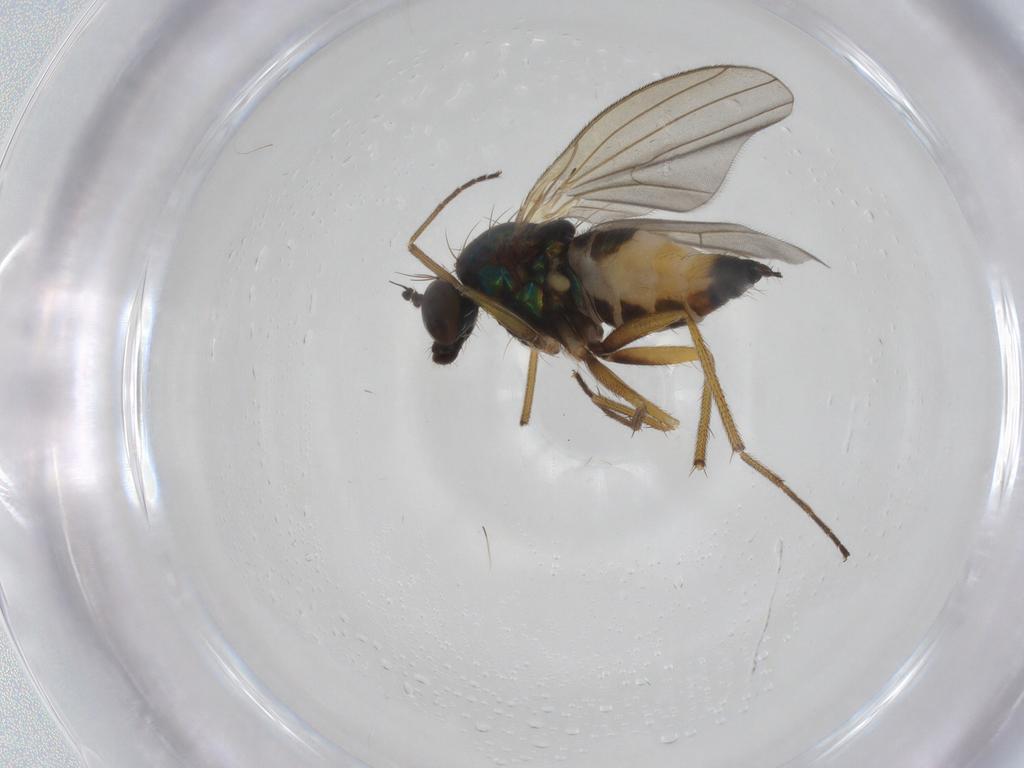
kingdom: Animalia
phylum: Arthropoda
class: Insecta
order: Diptera
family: Dolichopodidae
